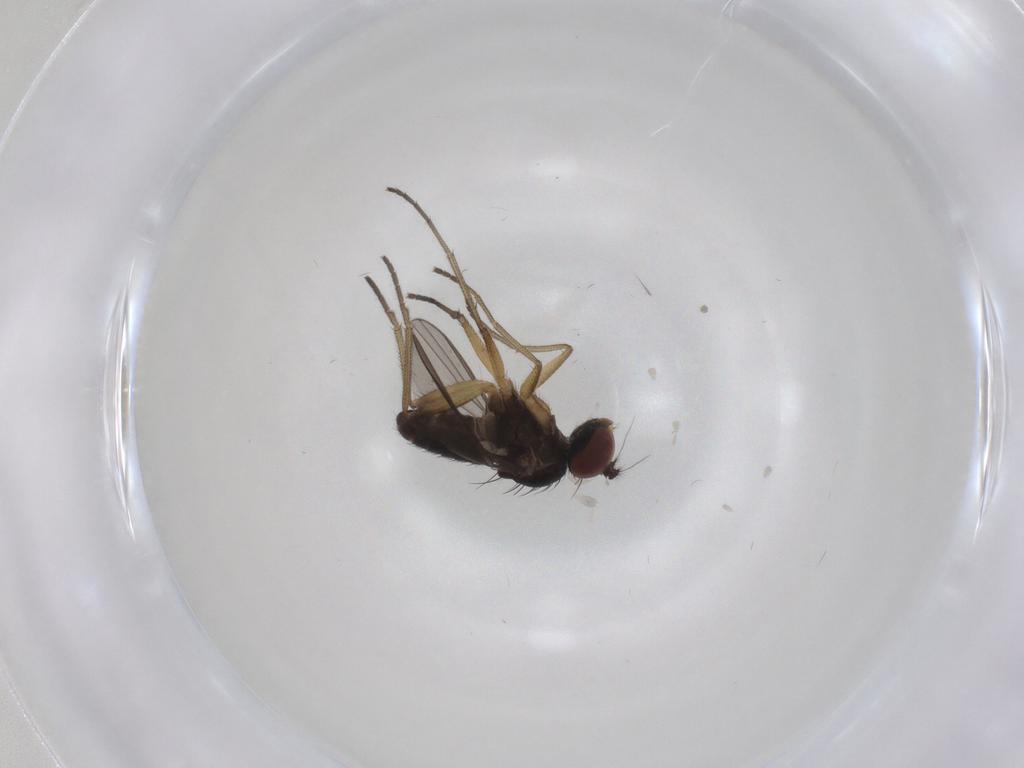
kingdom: Animalia
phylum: Arthropoda
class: Insecta
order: Diptera
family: Dolichopodidae
